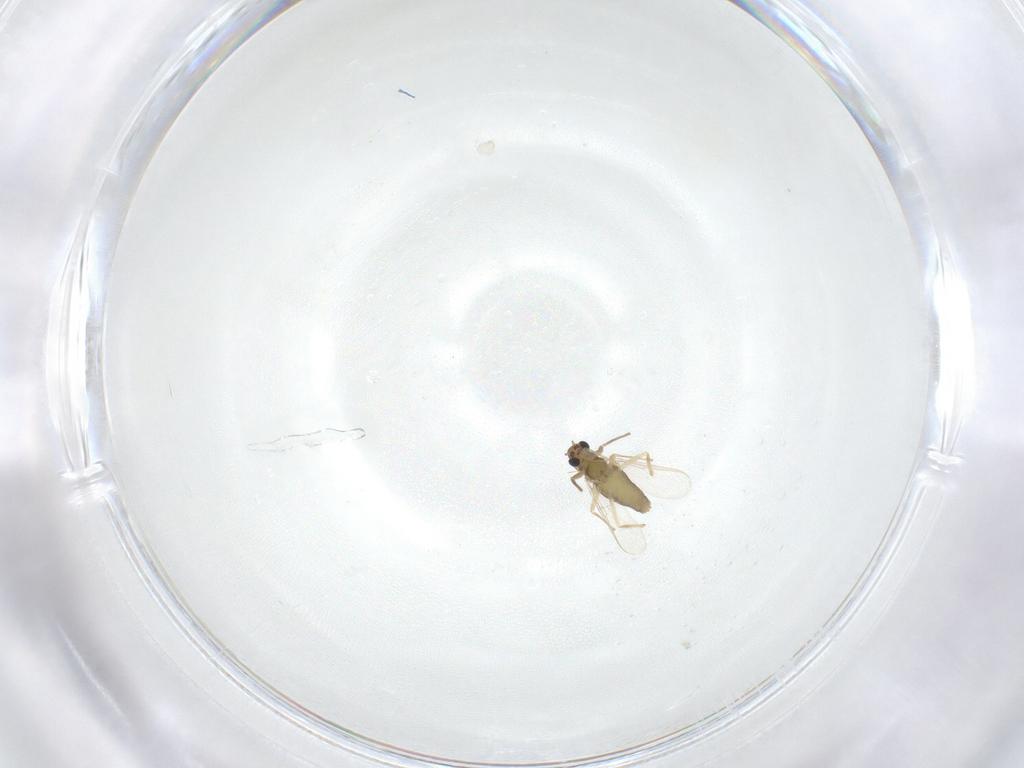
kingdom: Animalia
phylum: Arthropoda
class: Insecta
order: Diptera
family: Chironomidae
